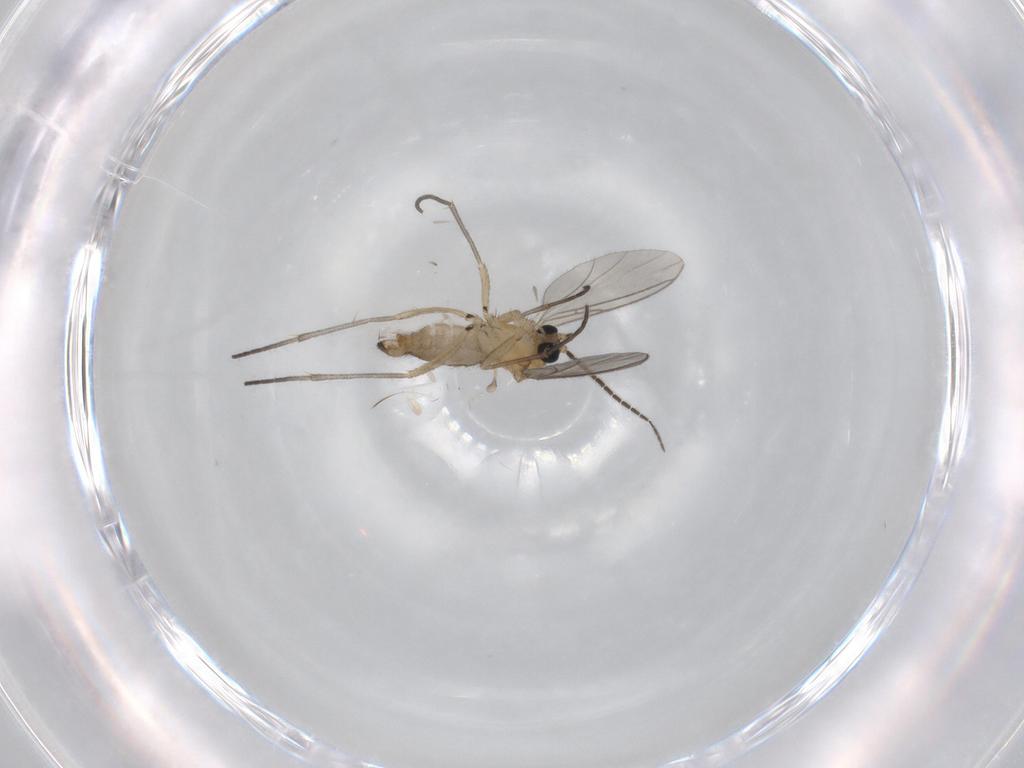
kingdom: Animalia
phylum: Arthropoda
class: Insecta
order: Diptera
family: Sciaridae
